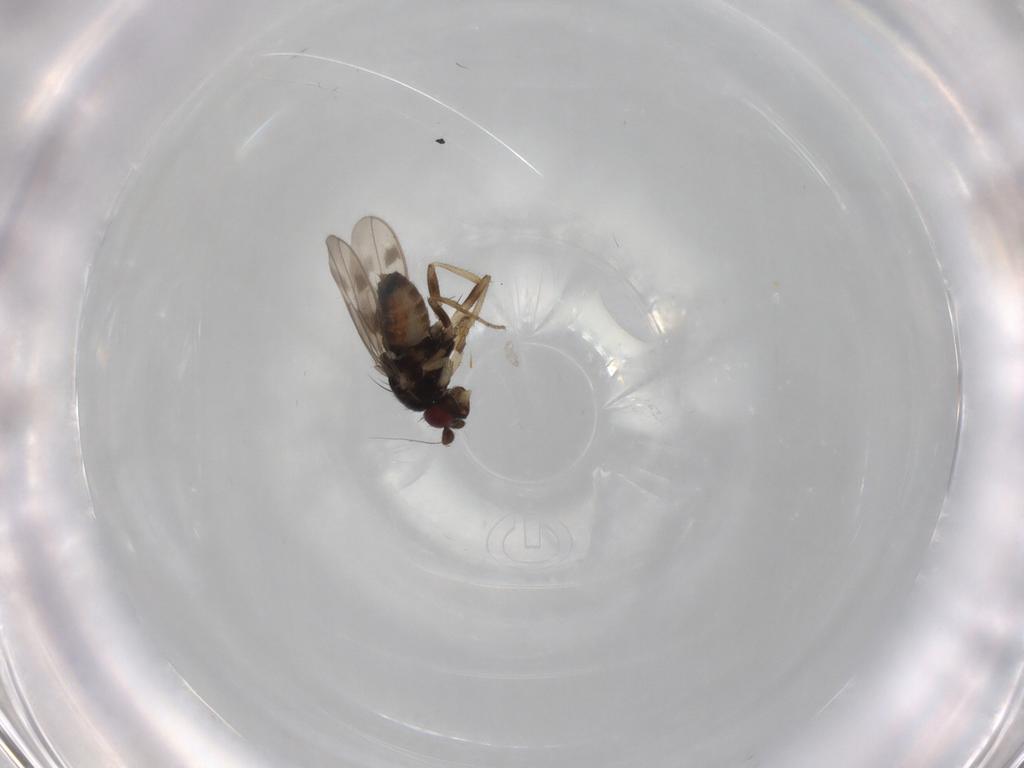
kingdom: Animalia
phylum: Arthropoda
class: Insecta
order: Diptera
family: Sphaeroceridae
